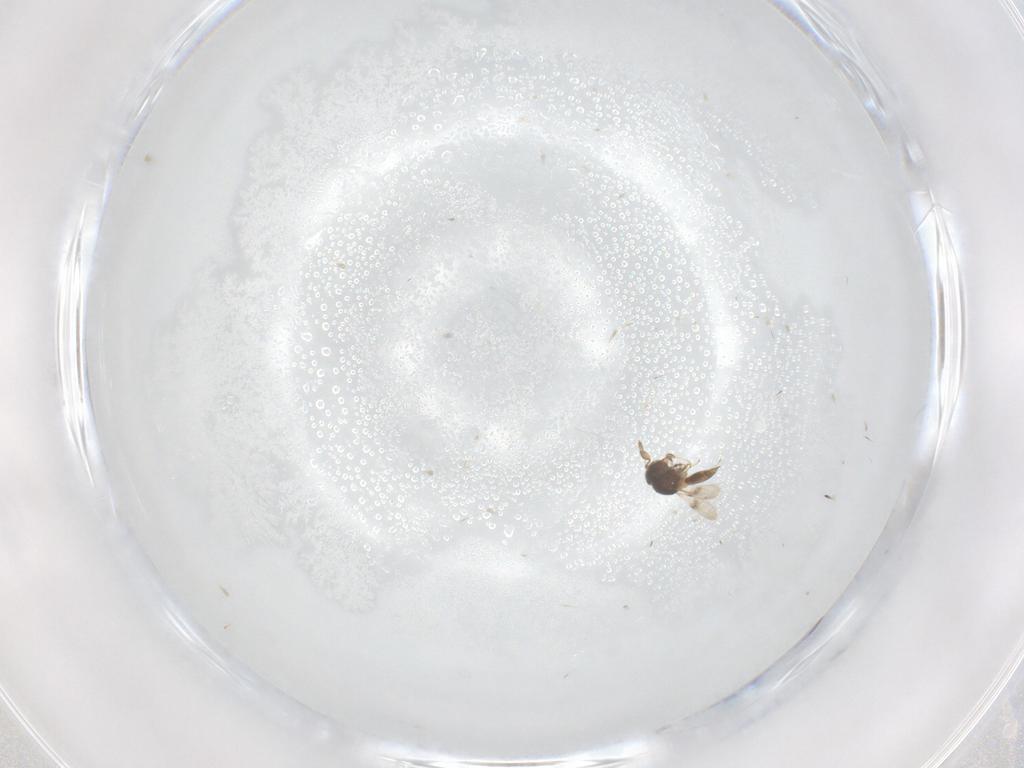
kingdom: Animalia
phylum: Arthropoda
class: Insecta
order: Hymenoptera
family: Scelionidae
